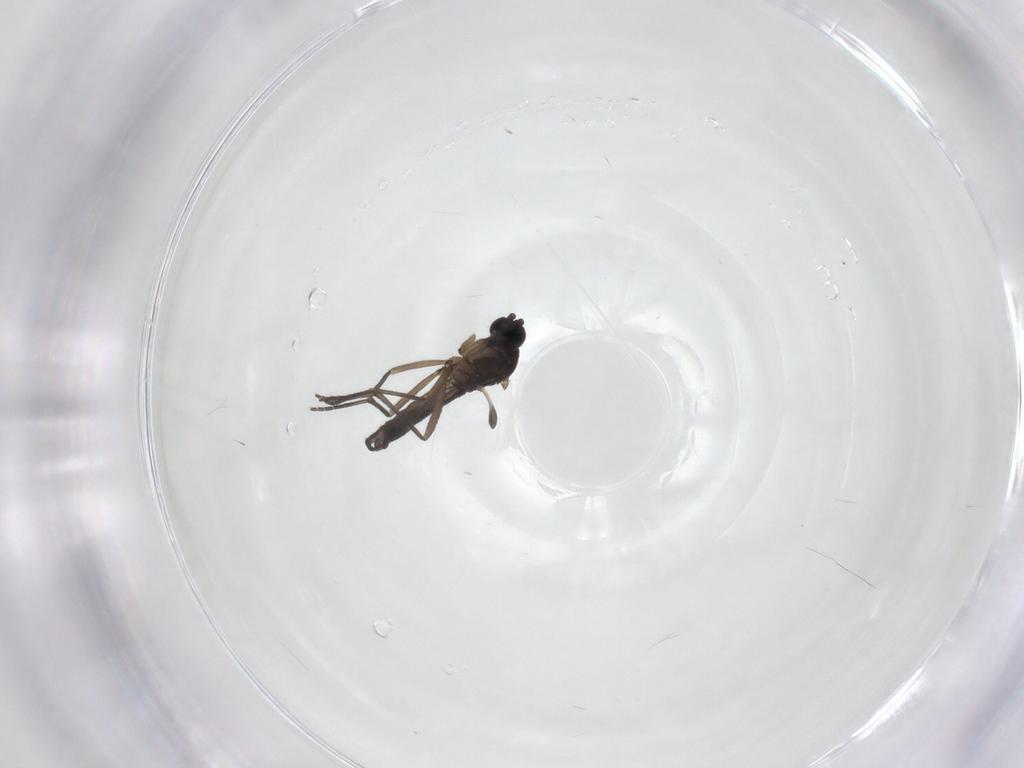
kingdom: Animalia
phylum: Arthropoda
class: Insecta
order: Diptera
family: Sciaridae
